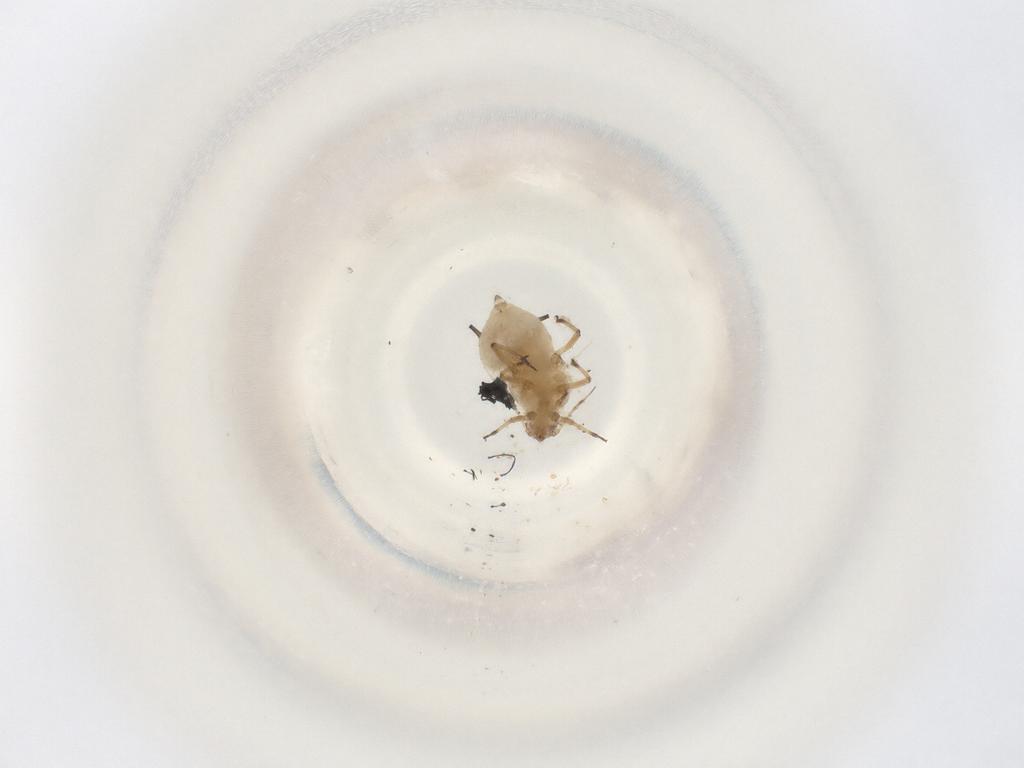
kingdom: Animalia
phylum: Arthropoda
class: Insecta
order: Hemiptera
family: Aphididae
